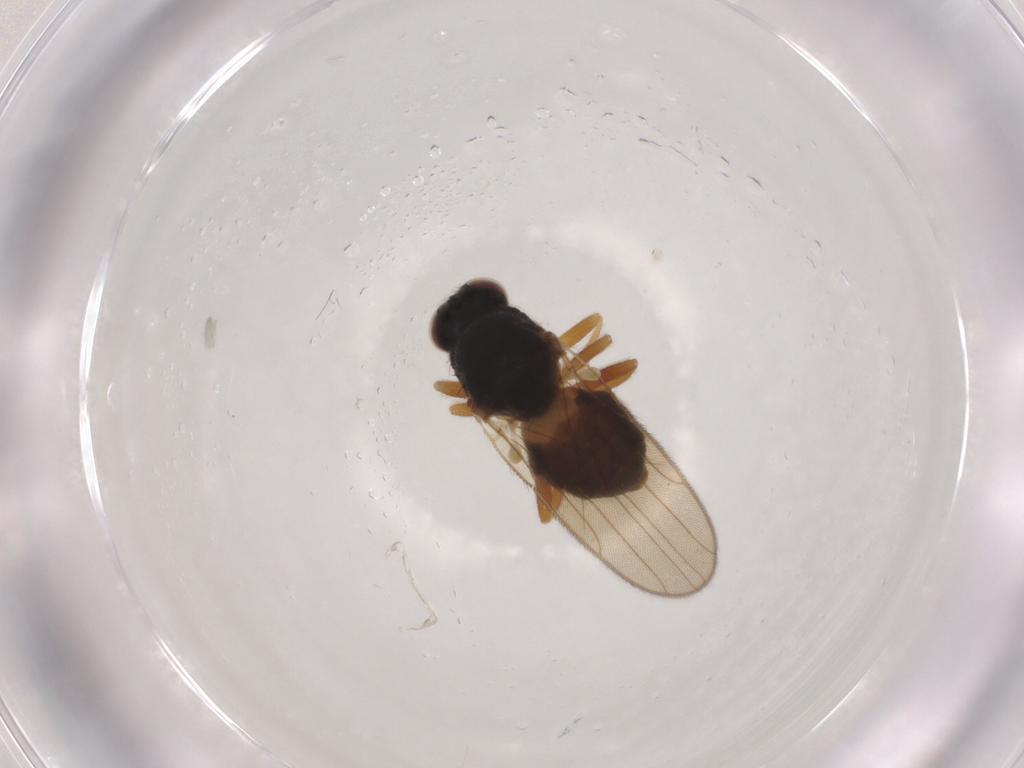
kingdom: Animalia
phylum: Arthropoda
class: Insecta
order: Diptera
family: Chloropidae
